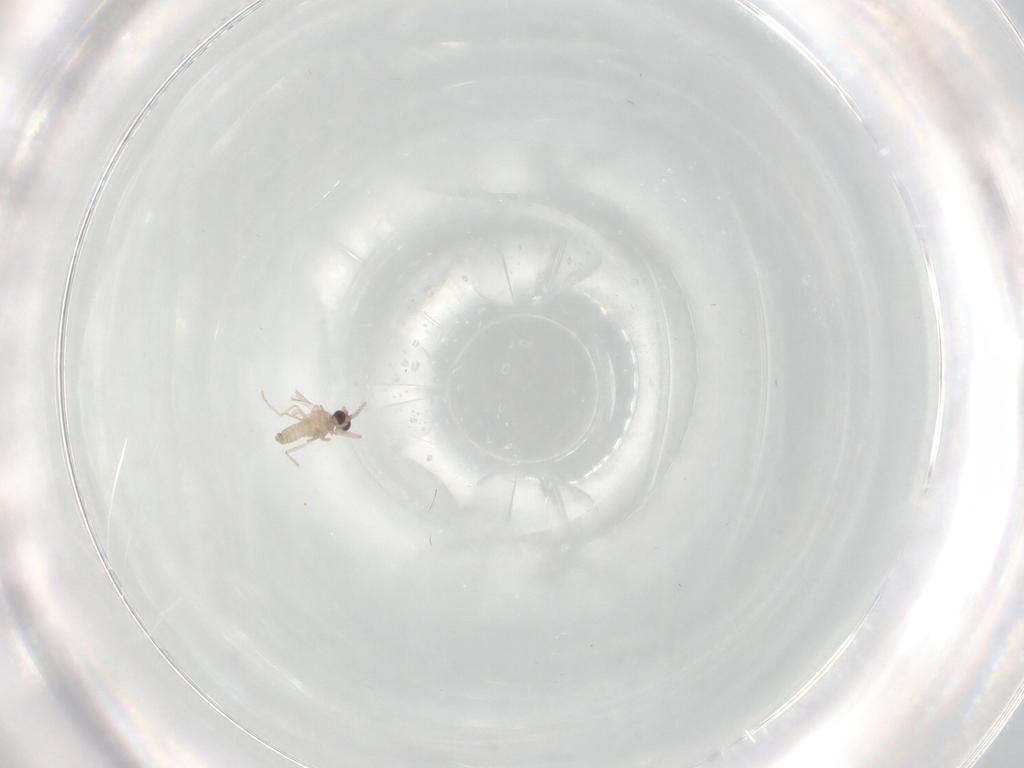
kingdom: Animalia
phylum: Arthropoda
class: Insecta
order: Diptera
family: Cecidomyiidae
